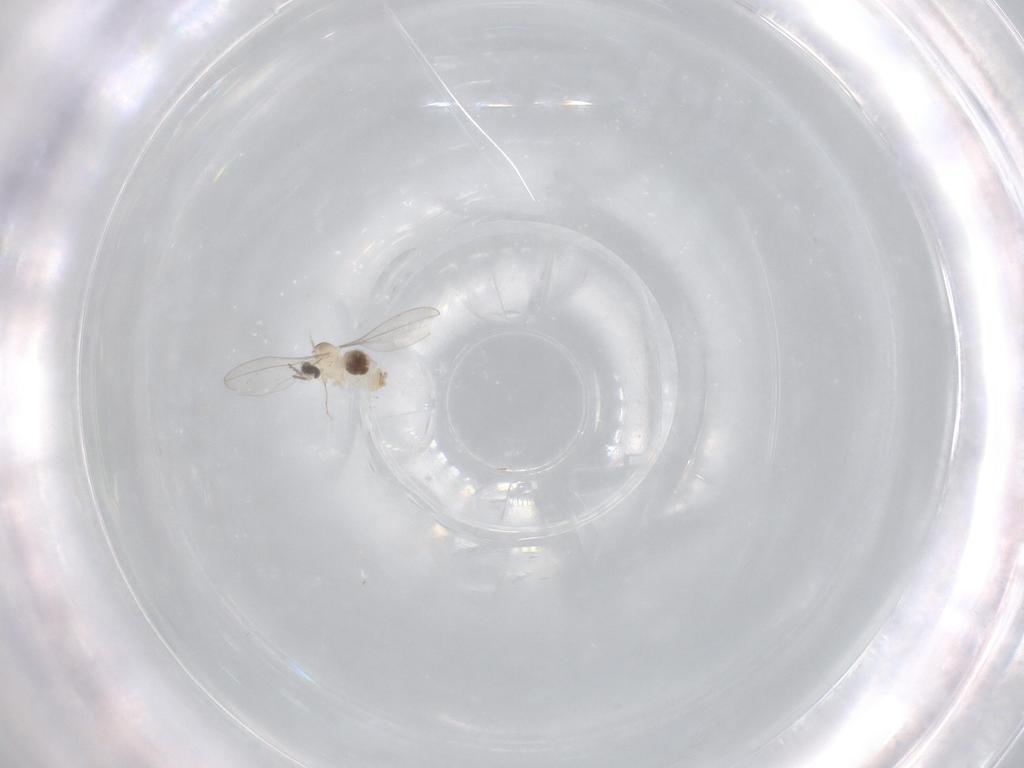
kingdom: Animalia
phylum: Arthropoda
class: Insecta
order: Diptera
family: Cecidomyiidae
